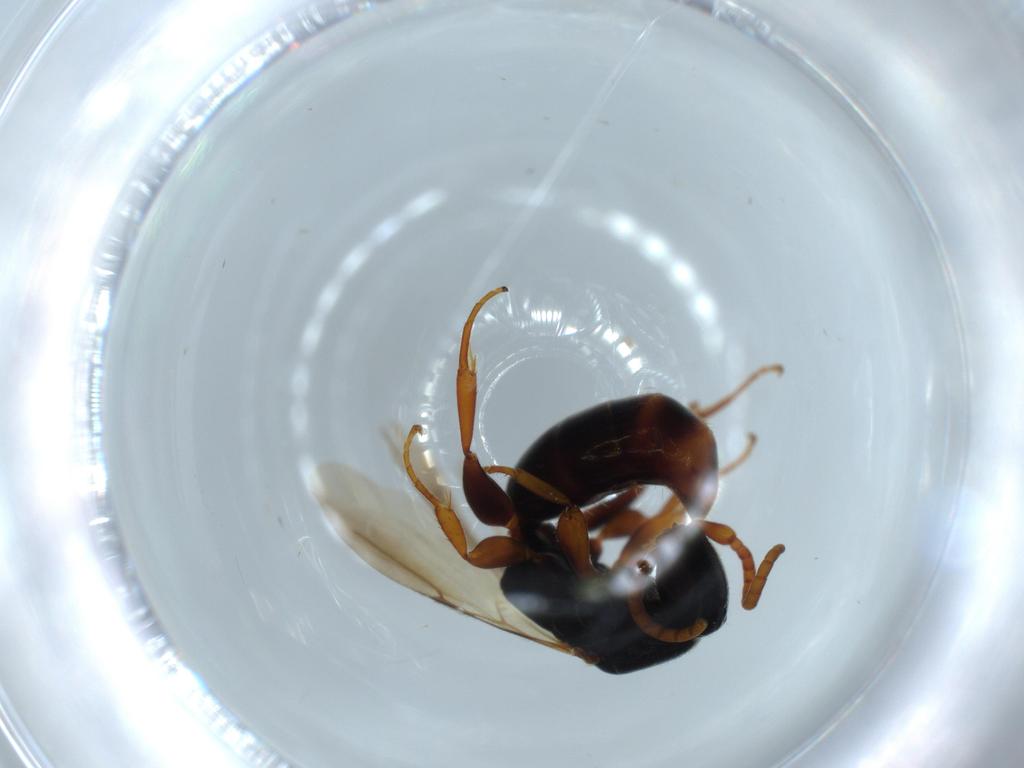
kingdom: Animalia
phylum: Arthropoda
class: Insecta
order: Hymenoptera
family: Bethylidae
